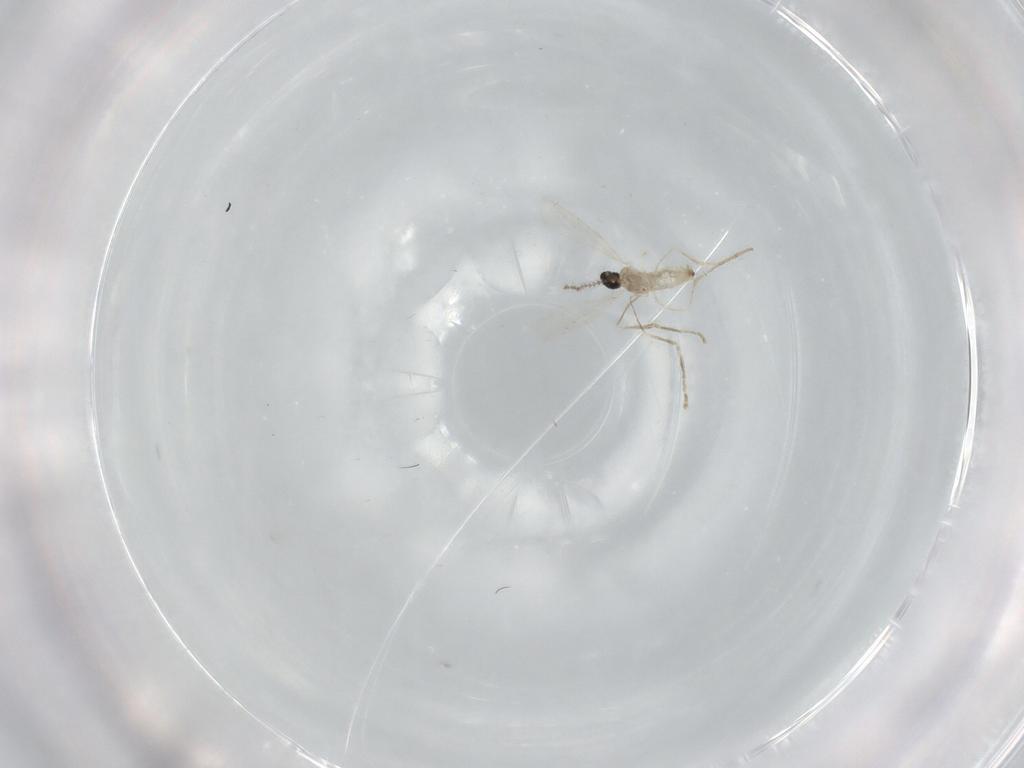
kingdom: Animalia
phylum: Arthropoda
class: Insecta
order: Diptera
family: Cecidomyiidae
